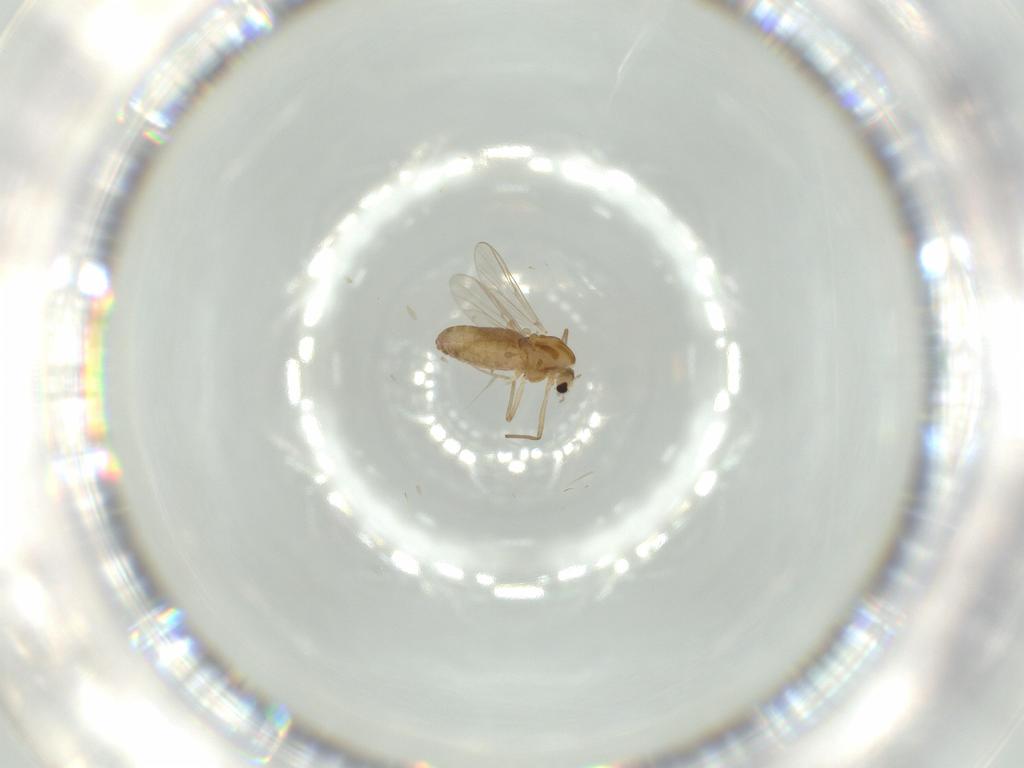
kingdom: Animalia
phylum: Arthropoda
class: Insecta
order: Diptera
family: Chironomidae
